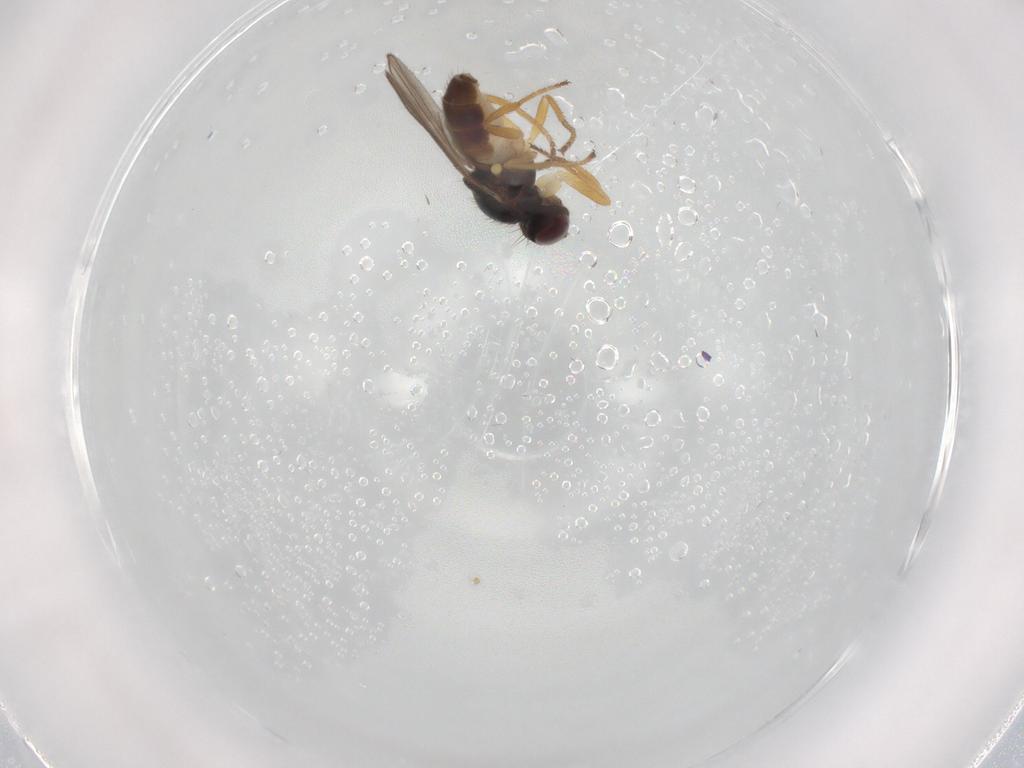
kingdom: Animalia
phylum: Arthropoda
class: Insecta
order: Diptera
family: Chloropidae
